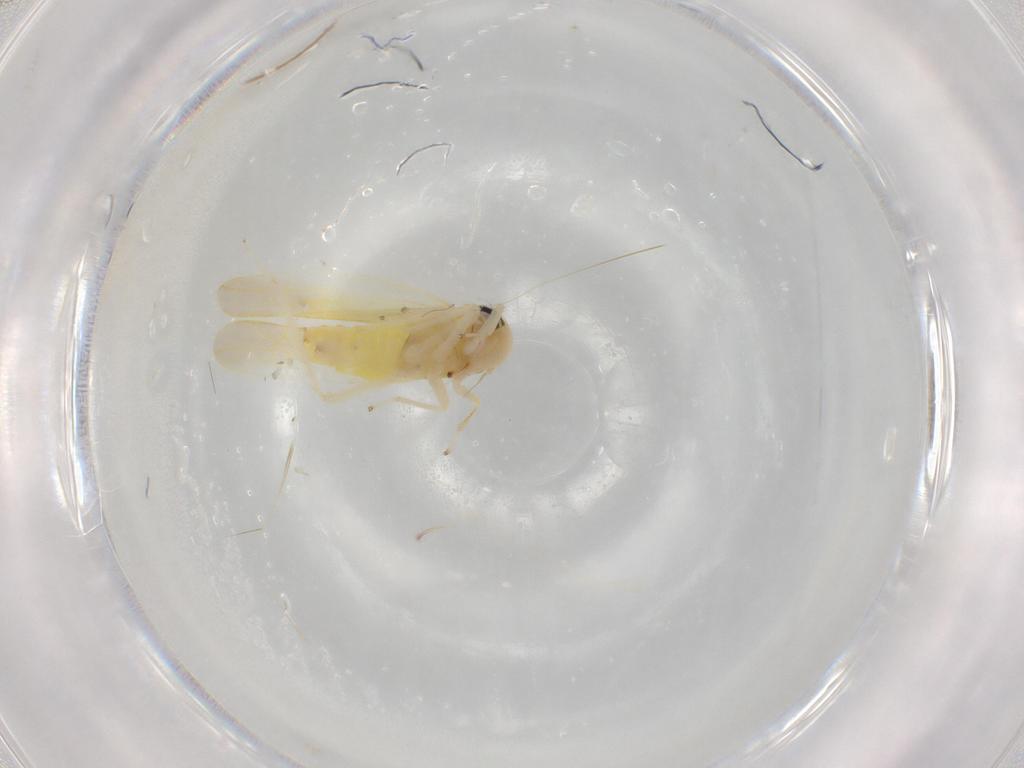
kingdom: Animalia
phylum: Arthropoda
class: Insecta
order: Hemiptera
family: Cicadellidae
